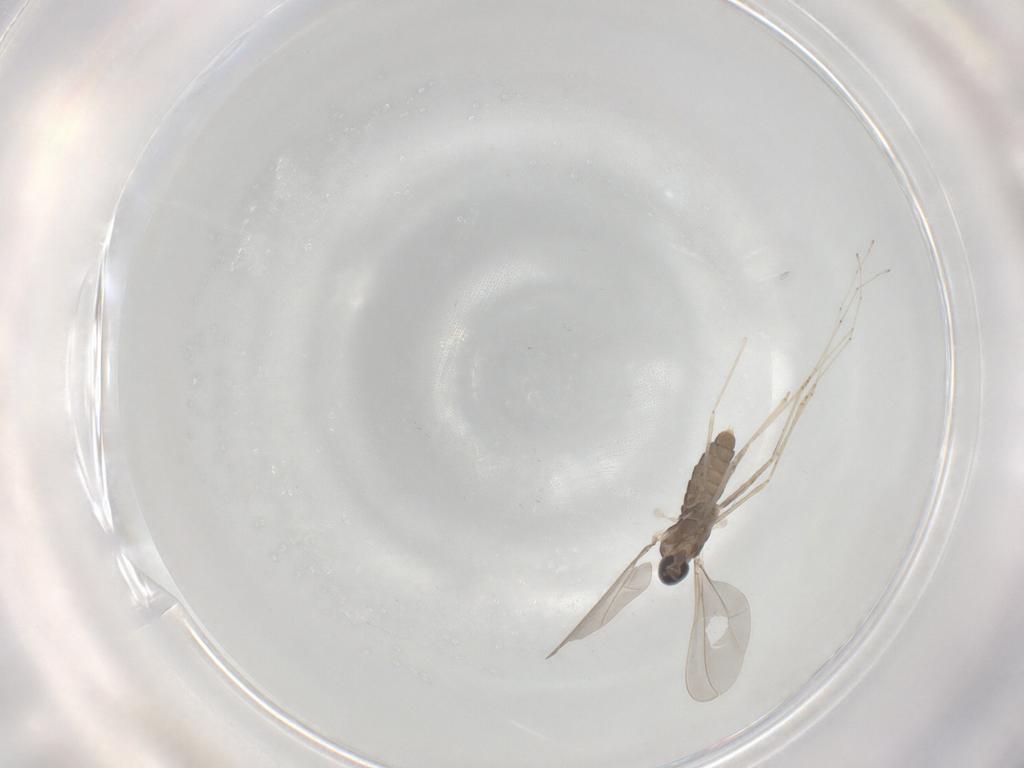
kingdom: Animalia
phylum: Arthropoda
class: Insecta
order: Diptera
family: Cecidomyiidae
